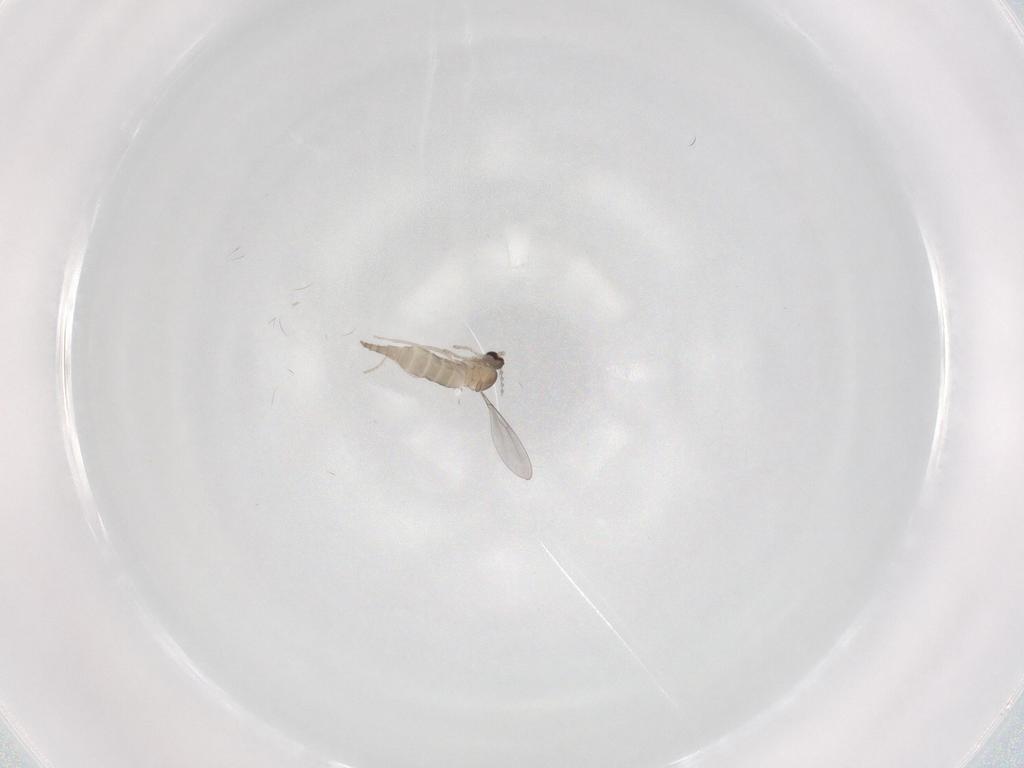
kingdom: Animalia
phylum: Arthropoda
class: Insecta
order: Diptera
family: Cecidomyiidae
